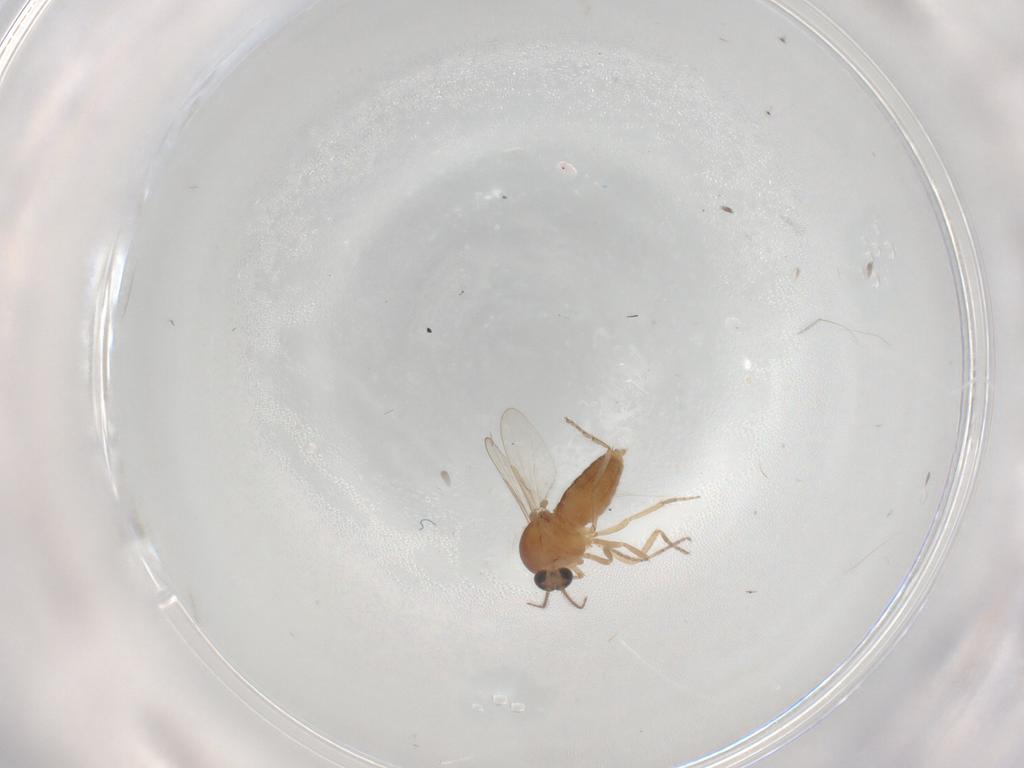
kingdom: Animalia
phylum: Arthropoda
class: Insecta
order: Diptera
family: Ceratopogonidae
